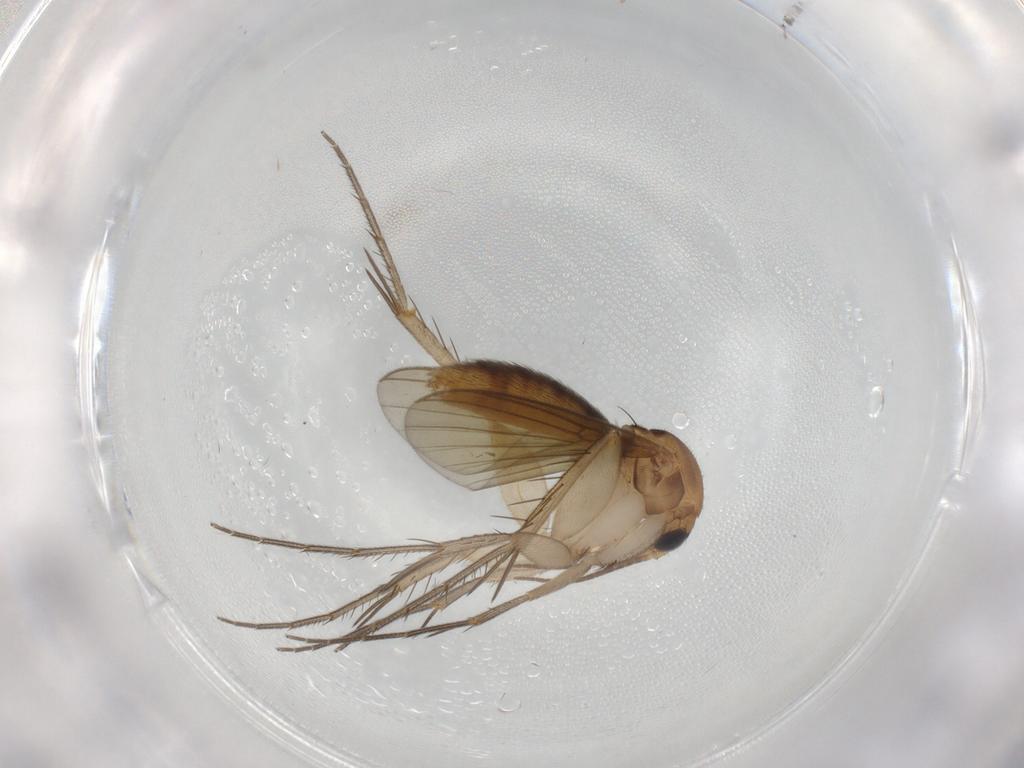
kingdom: Animalia
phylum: Arthropoda
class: Insecta
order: Diptera
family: Mycetophilidae
